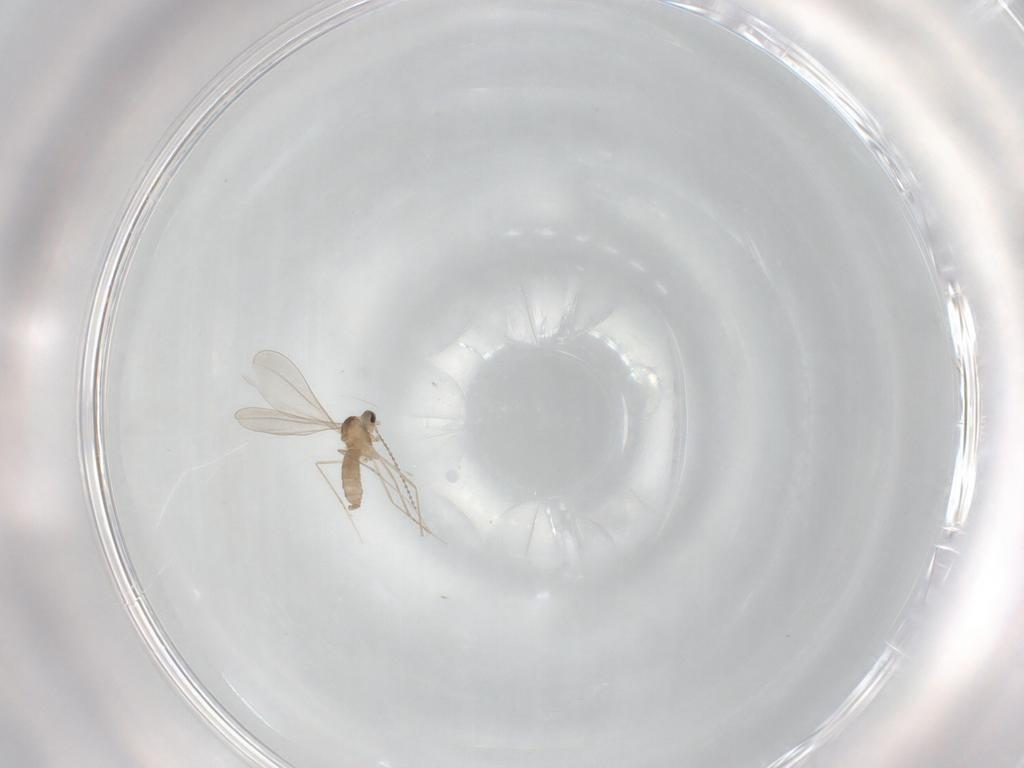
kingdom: Animalia
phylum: Arthropoda
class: Insecta
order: Diptera
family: Cecidomyiidae
